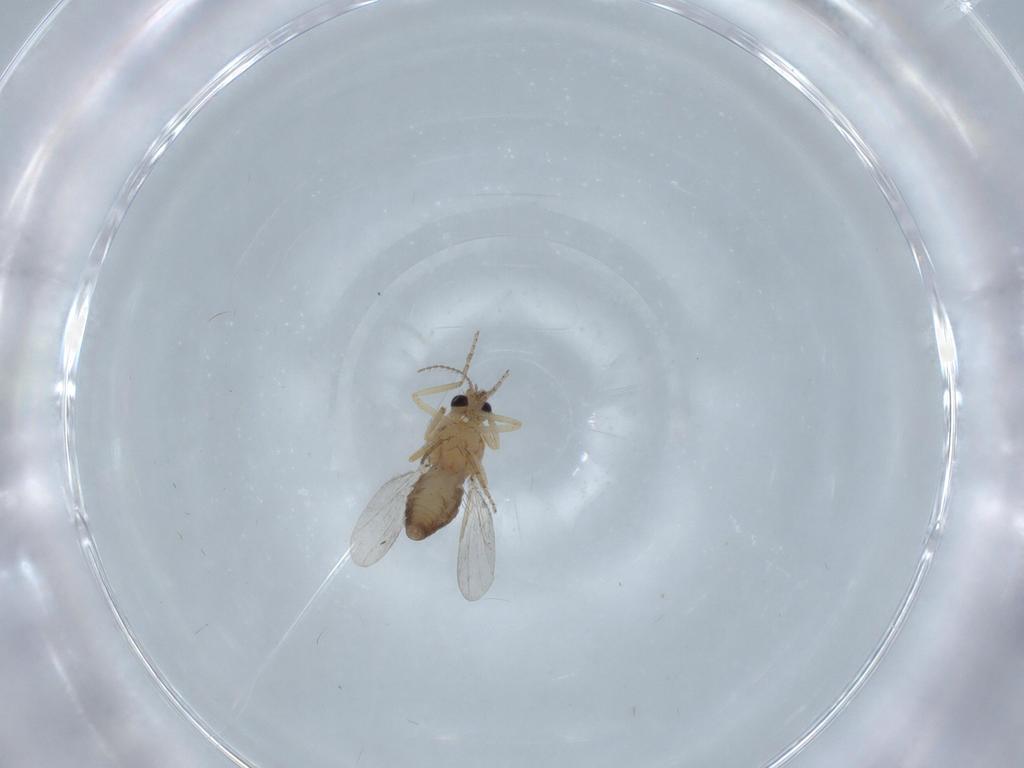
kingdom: Animalia
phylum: Arthropoda
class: Insecta
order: Diptera
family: Ceratopogonidae
